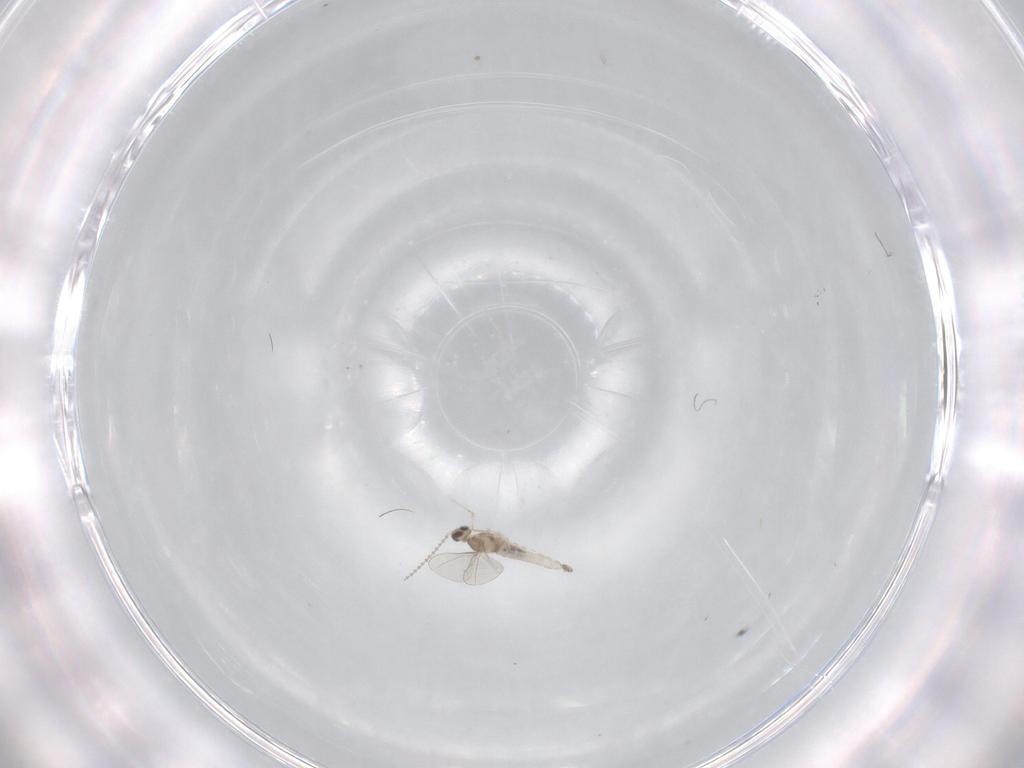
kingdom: Animalia
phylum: Arthropoda
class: Insecta
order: Diptera
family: Cecidomyiidae
